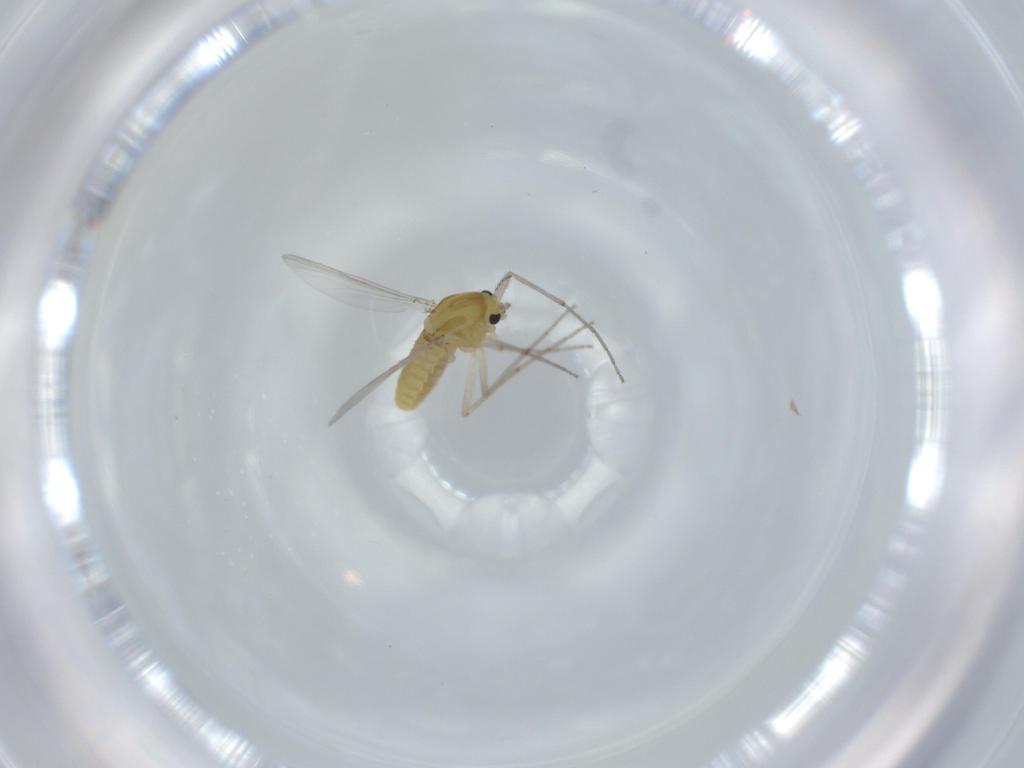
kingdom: Animalia
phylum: Arthropoda
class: Insecta
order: Diptera
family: Chironomidae
